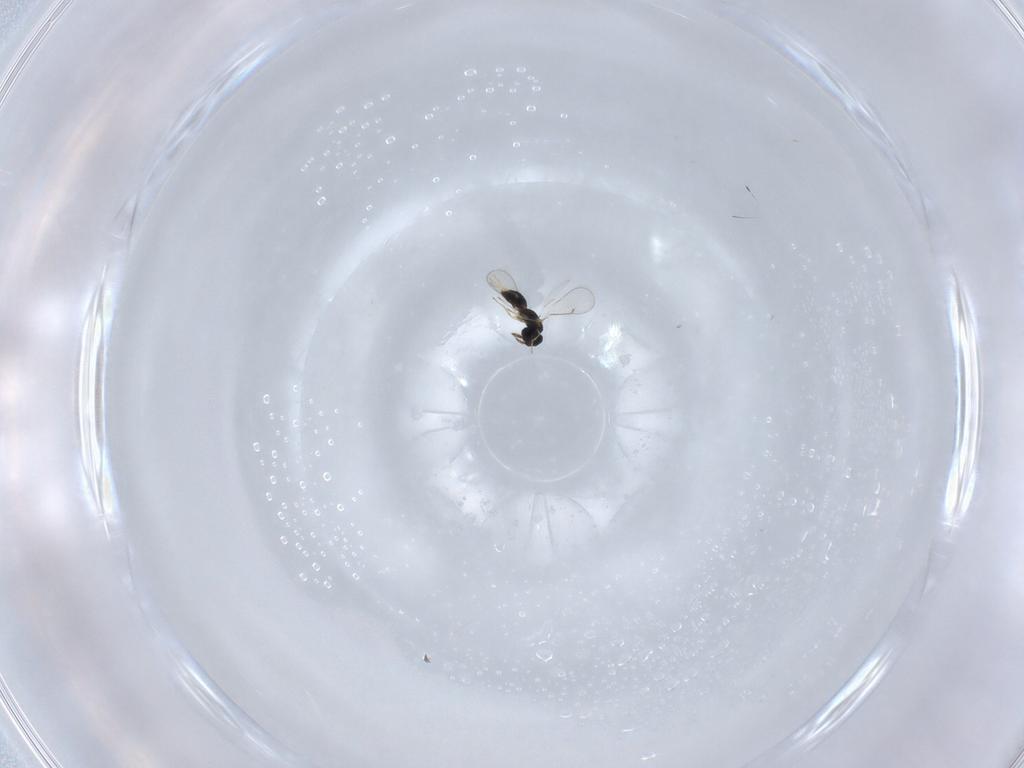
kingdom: Animalia
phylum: Arthropoda
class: Insecta
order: Hymenoptera
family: Eulophidae
